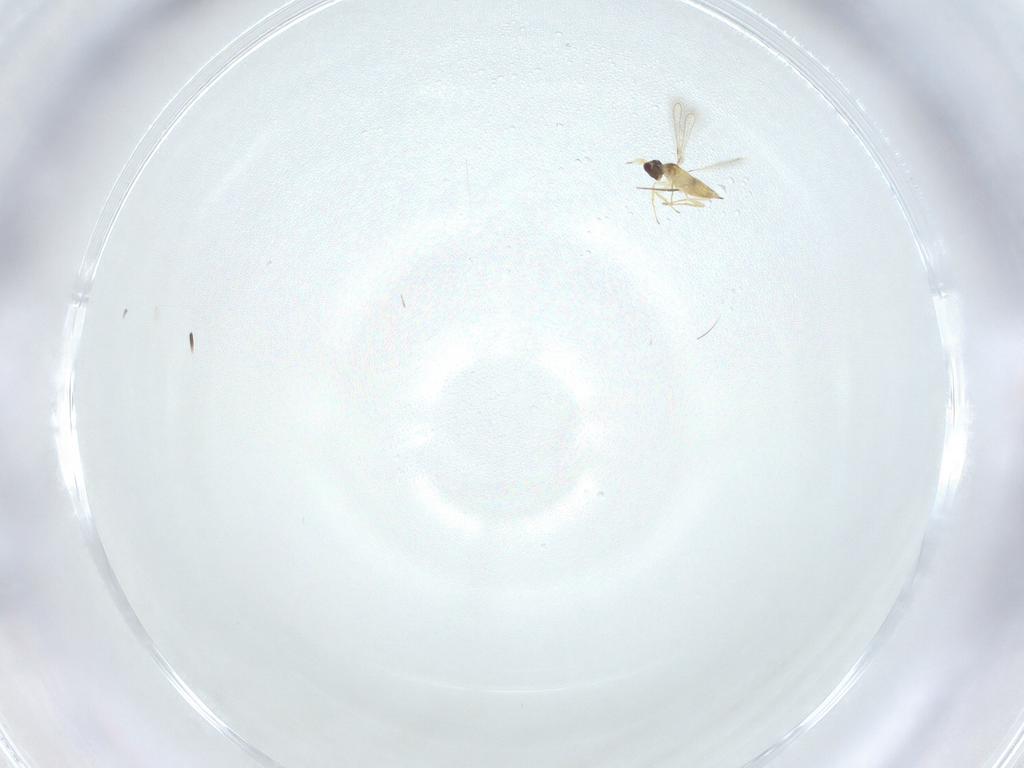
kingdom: Animalia
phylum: Arthropoda
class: Insecta
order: Hymenoptera
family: Mymaridae
